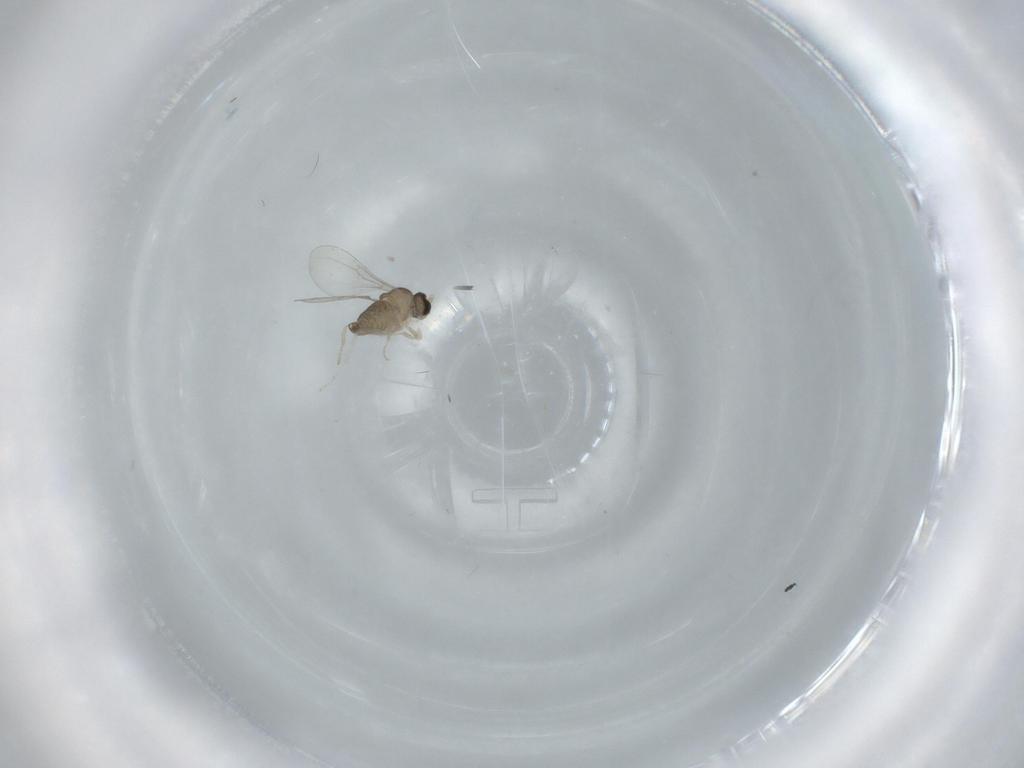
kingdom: Animalia
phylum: Arthropoda
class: Insecta
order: Diptera
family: Cecidomyiidae
